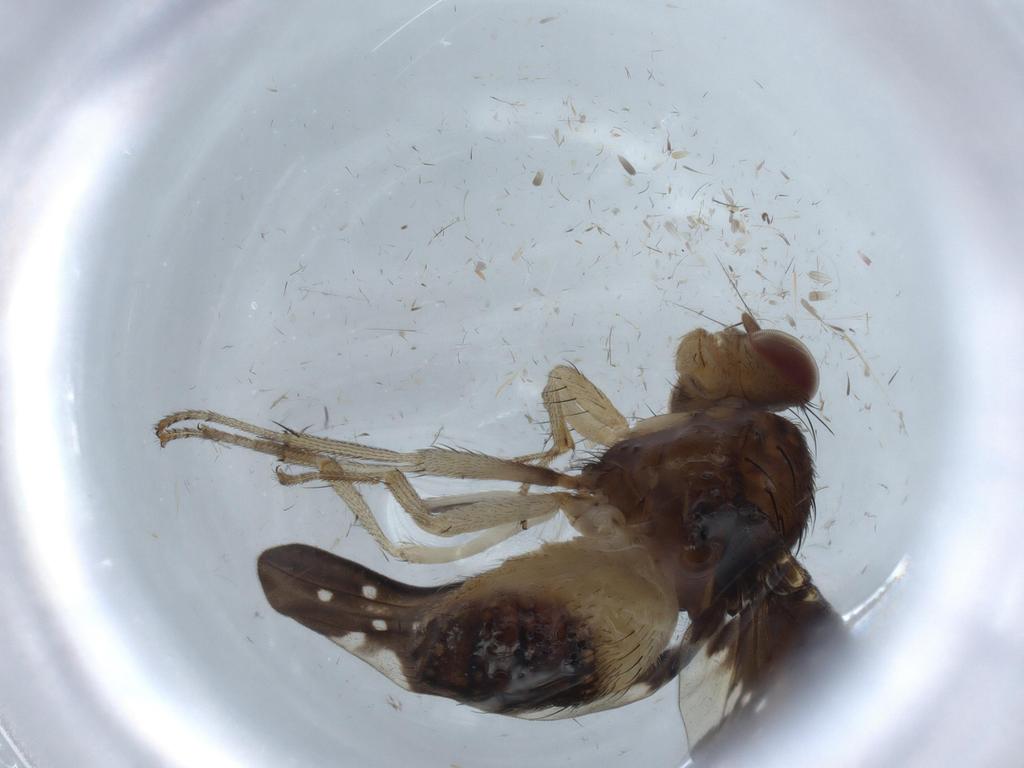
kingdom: Animalia
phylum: Arthropoda
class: Insecta
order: Diptera
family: Lauxaniidae
